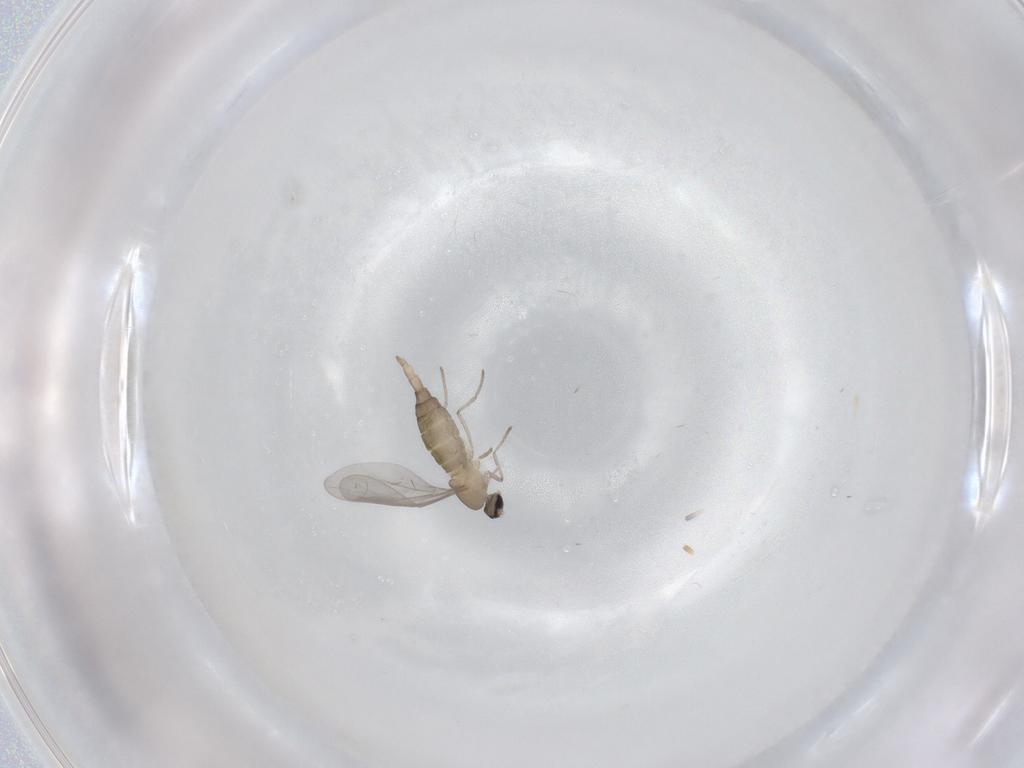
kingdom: Animalia
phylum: Arthropoda
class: Insecta
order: Diptera
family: Cecidomyiidae
